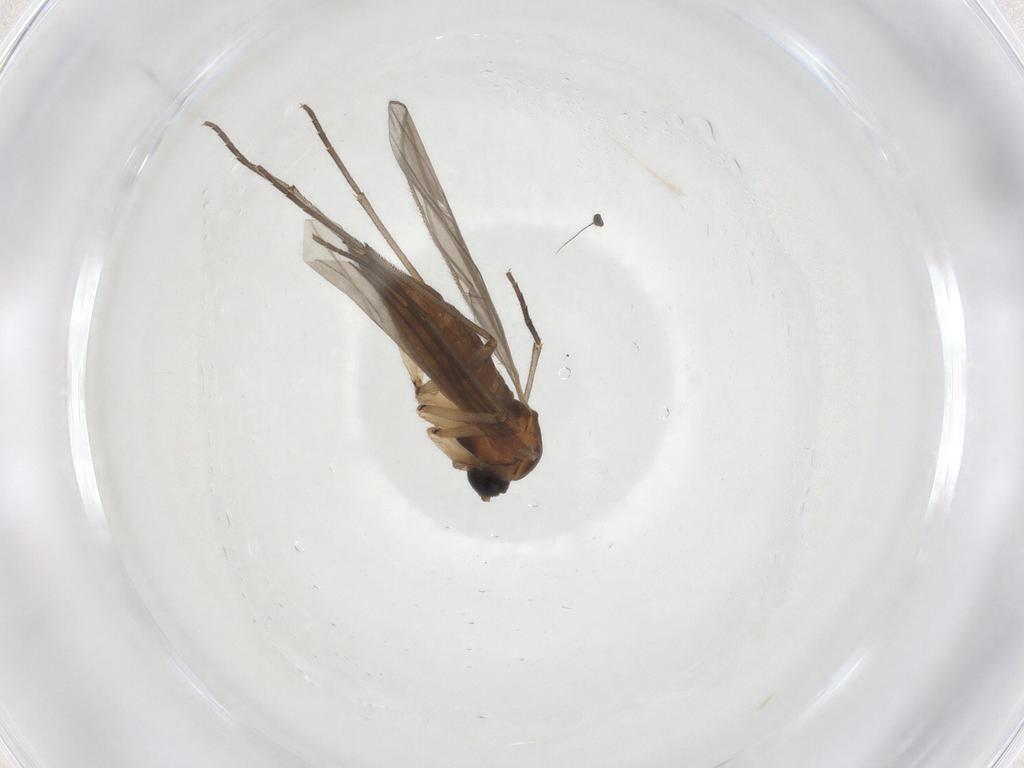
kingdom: Animalia
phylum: Arthropoda
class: Insecta
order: Diptera
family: Sciaridae
